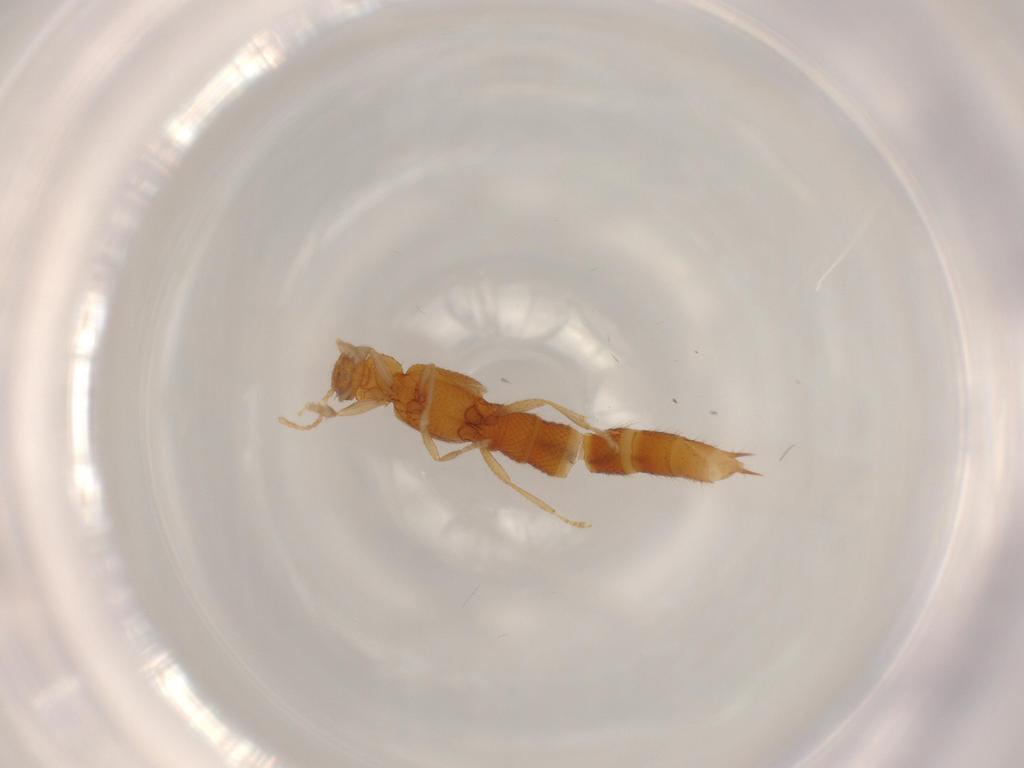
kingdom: Animalia
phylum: Arthropoda
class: Insecta
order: Coleoptera
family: Staphylinidae
